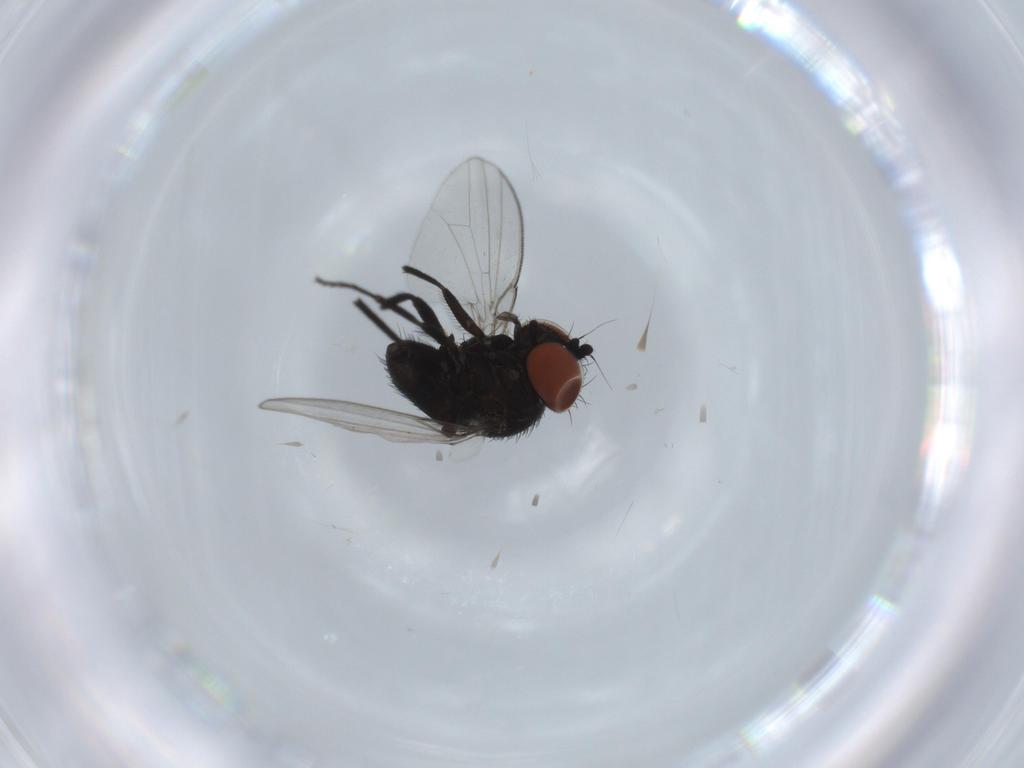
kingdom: Animalia
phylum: Arthropoda
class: Insecta
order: Diptera
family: Milichiidae
